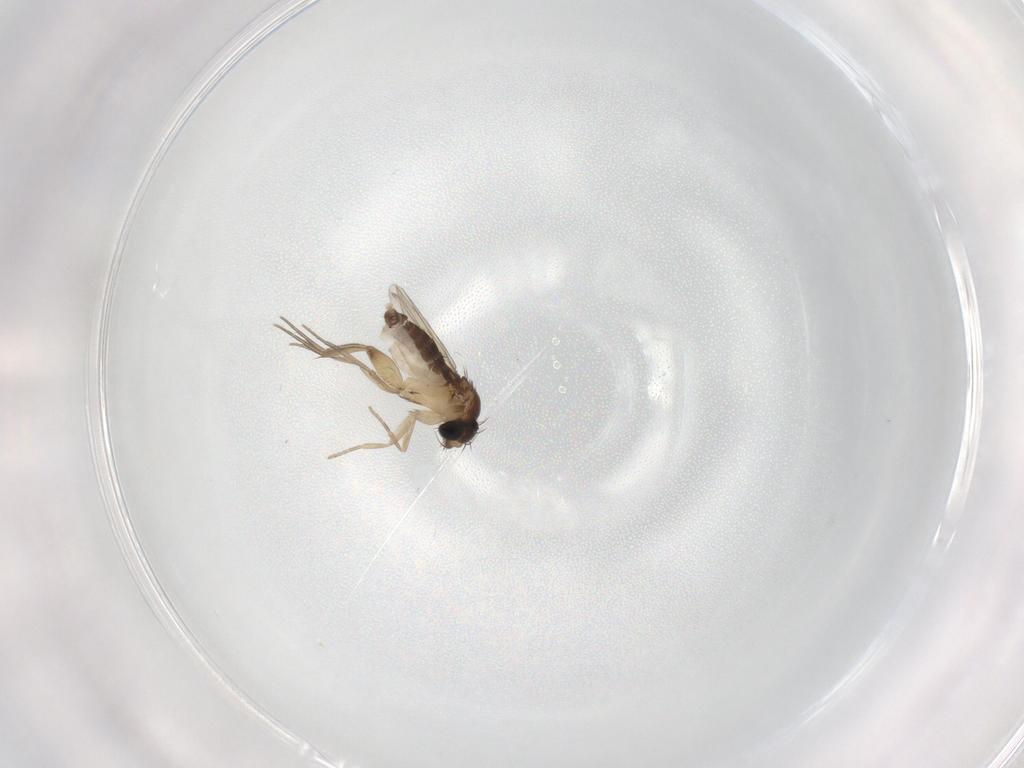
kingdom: Animalia
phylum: Arthropoda
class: Insecta
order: Diptera
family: Phoridae
